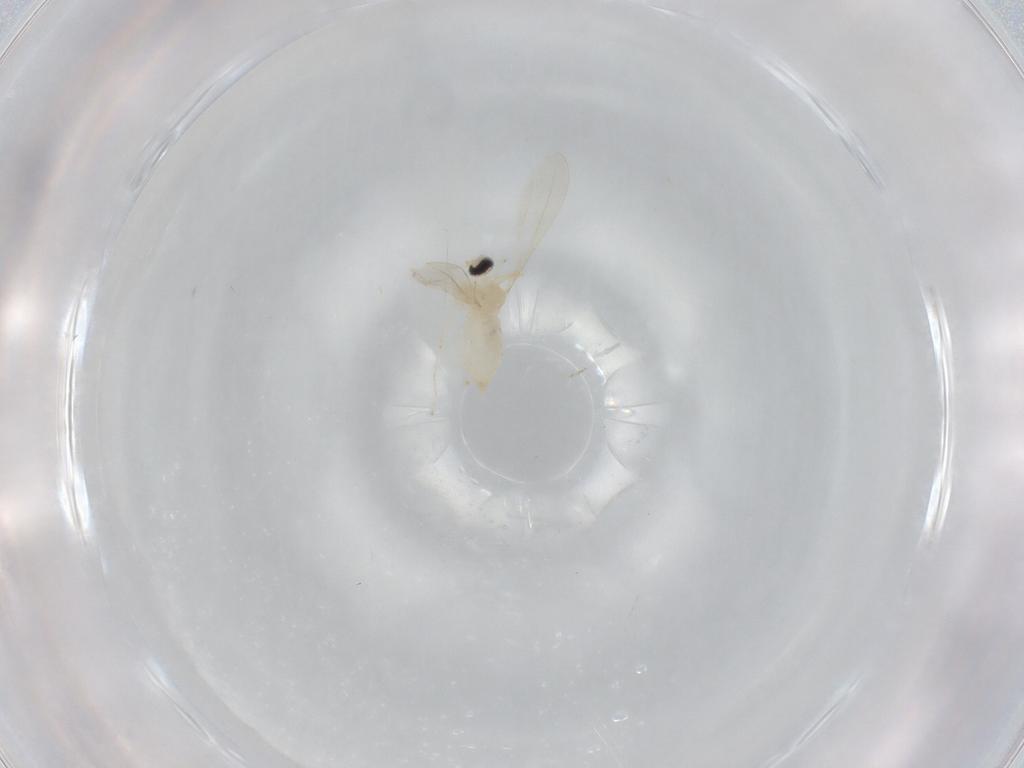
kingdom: Animalia
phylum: Arthropoda
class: Insecta
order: Diptera
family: Cecidomyiidae
